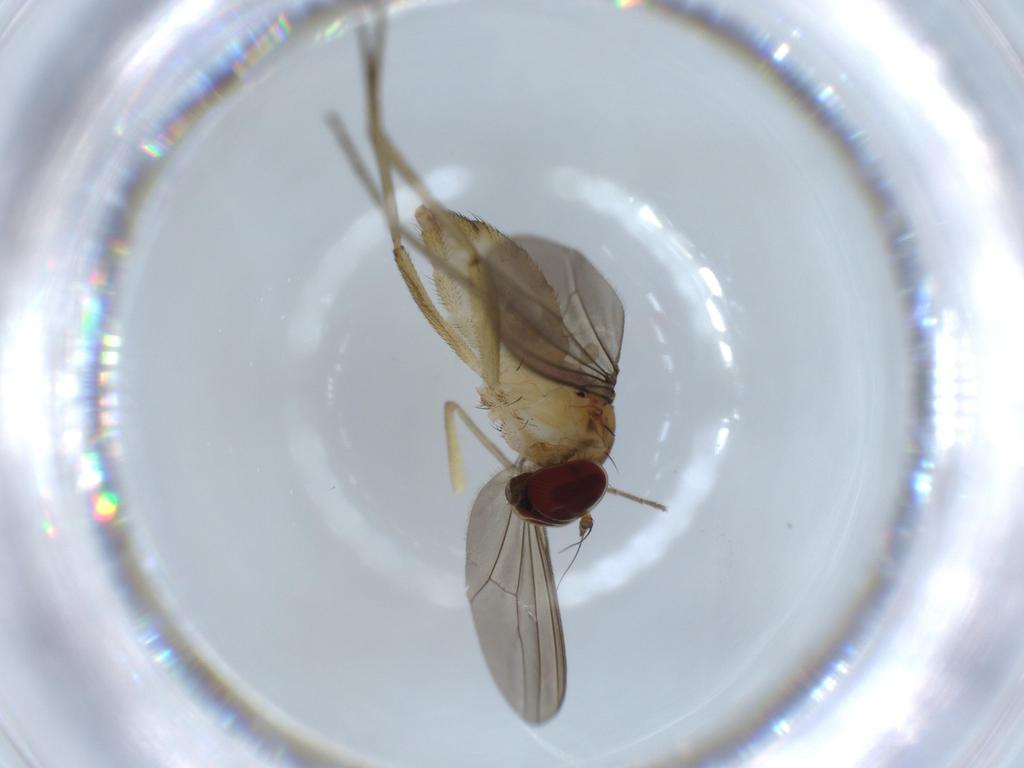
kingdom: Animalia
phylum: Arthropoda
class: Insecta
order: Diptera
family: Dolichopodidae
